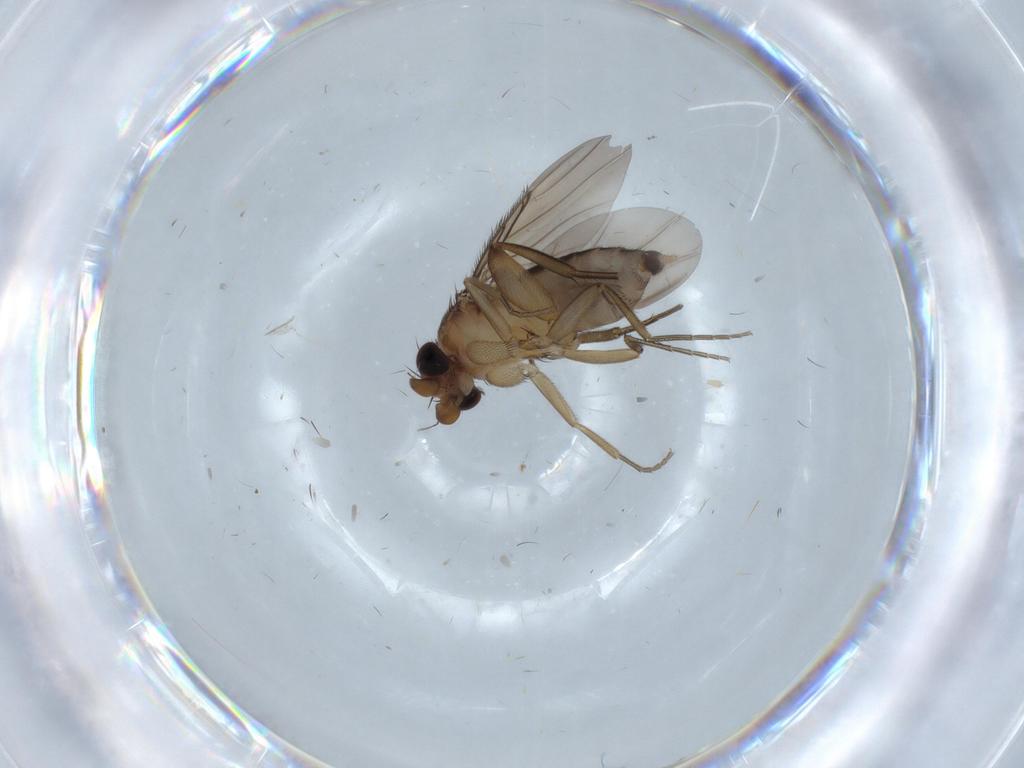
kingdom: Animalia
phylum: Arthropoda
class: Insecta
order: Diptera
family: Phoridae
